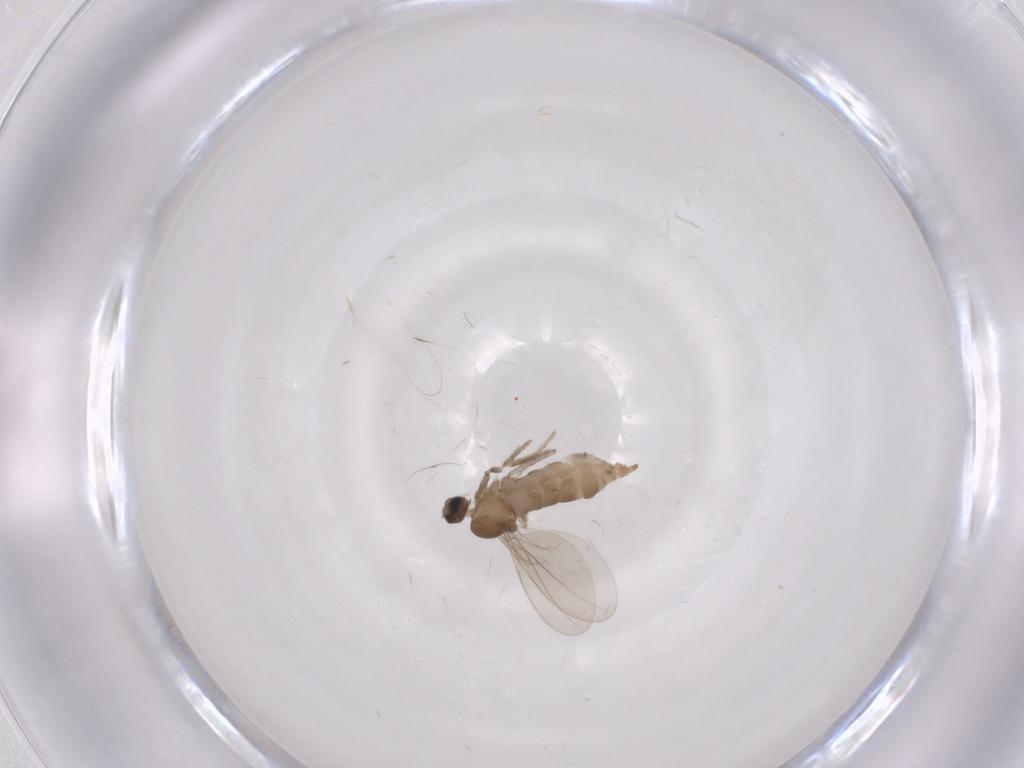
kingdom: Animalia
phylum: Arthropoda
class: Insecta
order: Diptera
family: Cecidomyiidae
